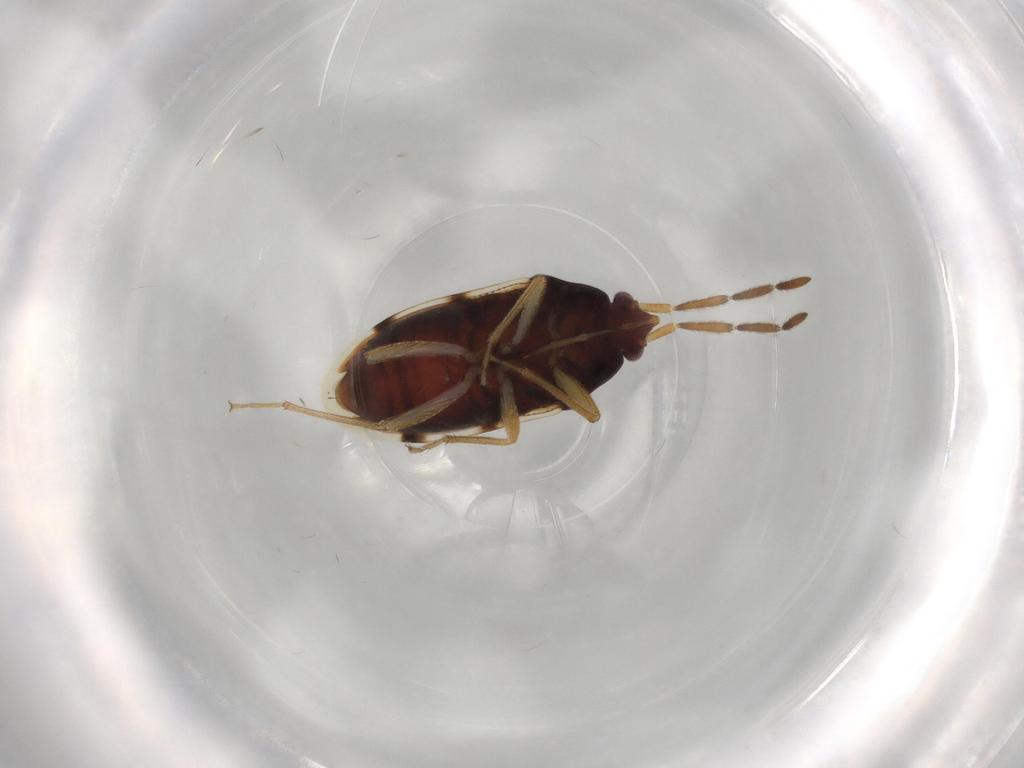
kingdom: Animalia
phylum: Arthropoda
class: Insecta
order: Hemiptera
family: Rhyparochromidae
